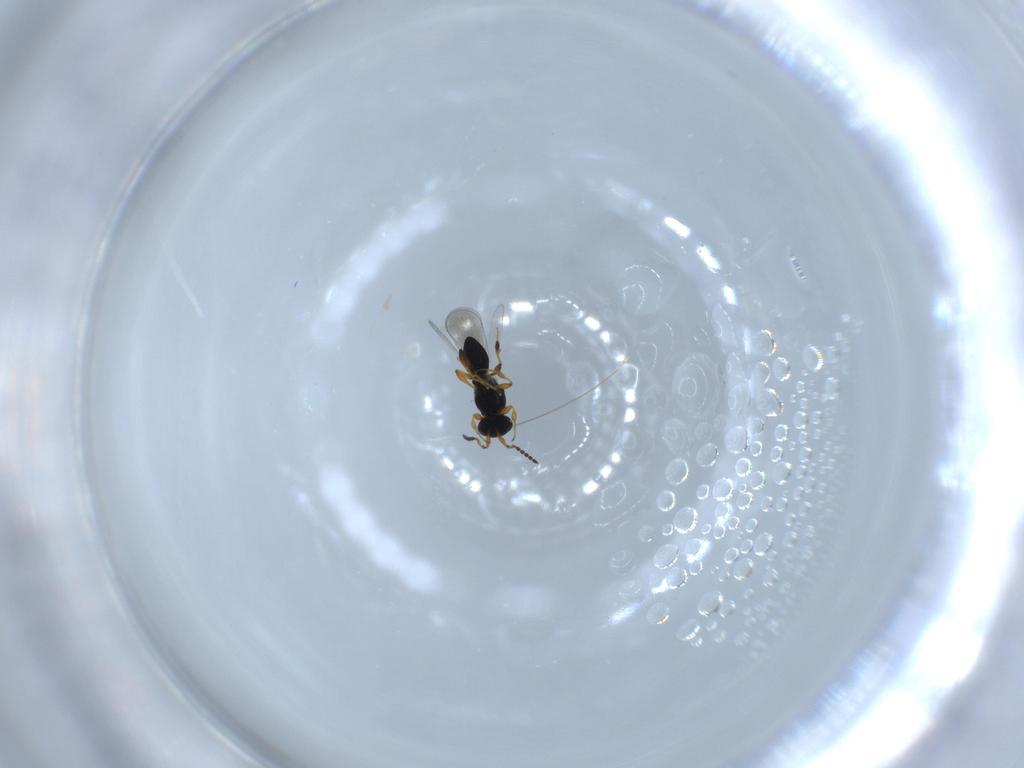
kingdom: Animalia
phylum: Arthropoda
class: Insecta
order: Hymenoptera
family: Platygastridae
